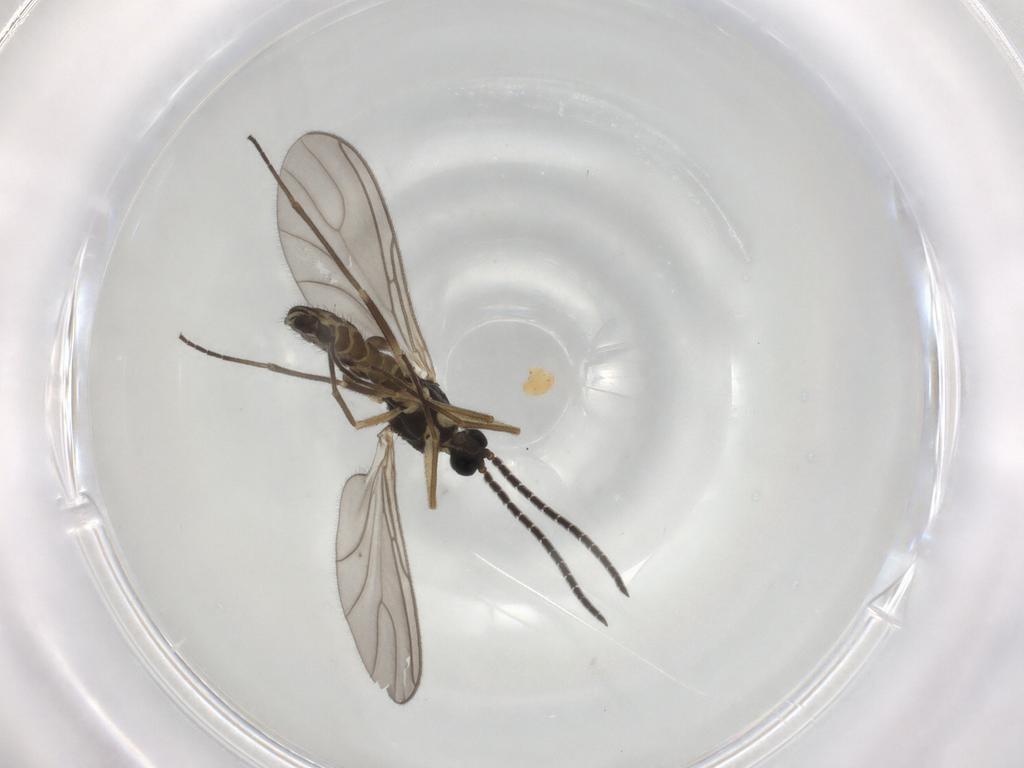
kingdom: Animalia
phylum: Arthropoda
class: Insecta
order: Diptera
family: Sciaridae
